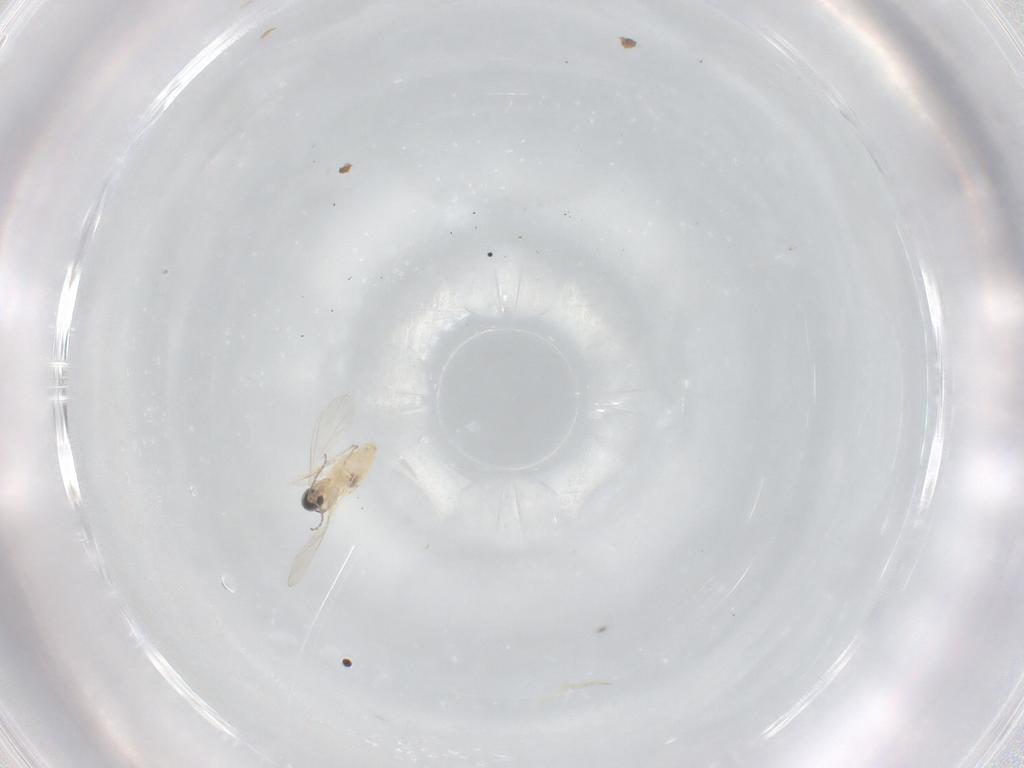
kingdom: Animalia
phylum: Arthropoda
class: Insecta
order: Diptera
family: Cecidomyiidae
